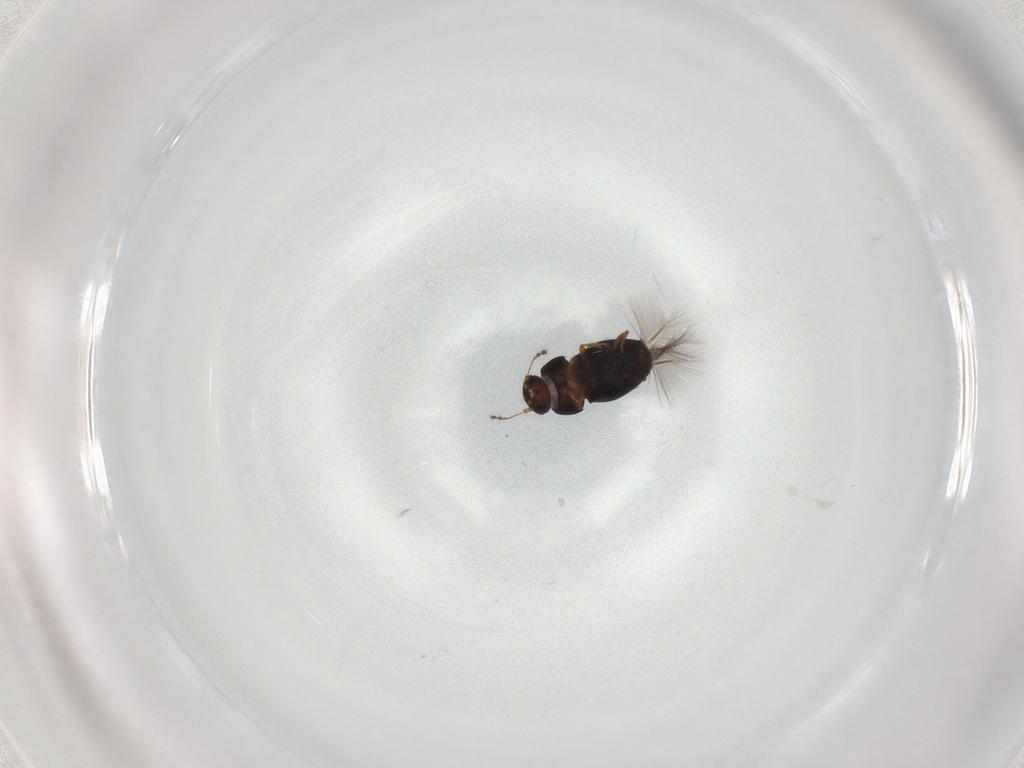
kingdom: Animalia
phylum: Arthropoda
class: Insecta
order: Coleoptera
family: Ptiliidae
